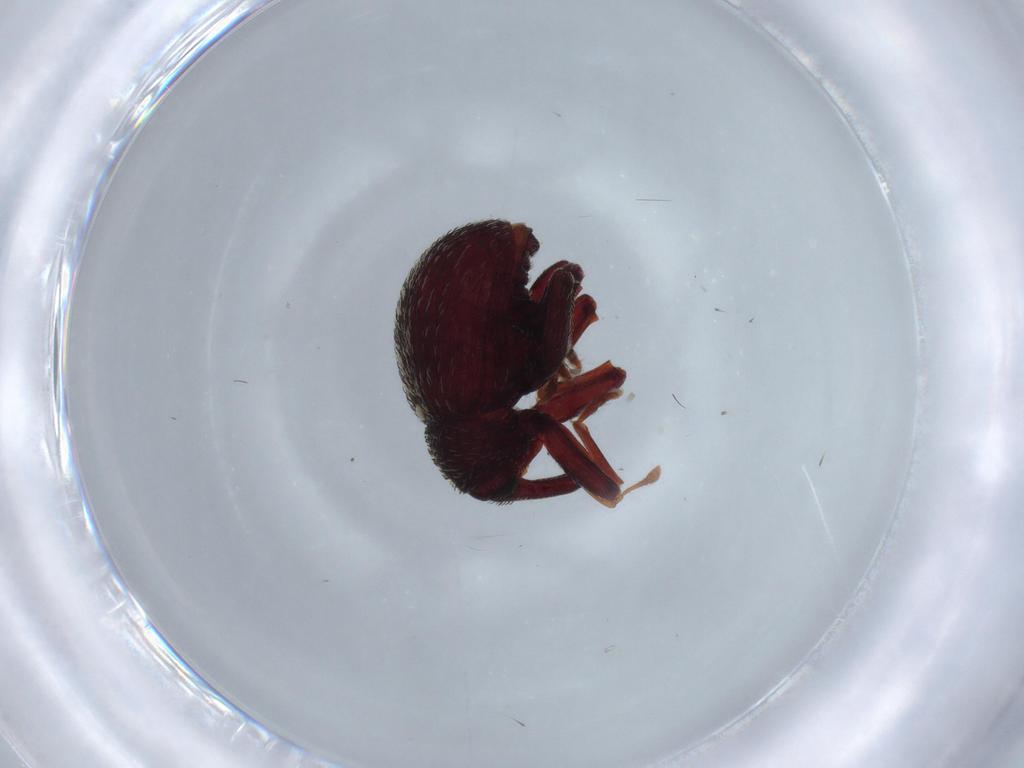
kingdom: Animalia
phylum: Arthropoda
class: Insecta
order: Coleoptera
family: Curculionidae
